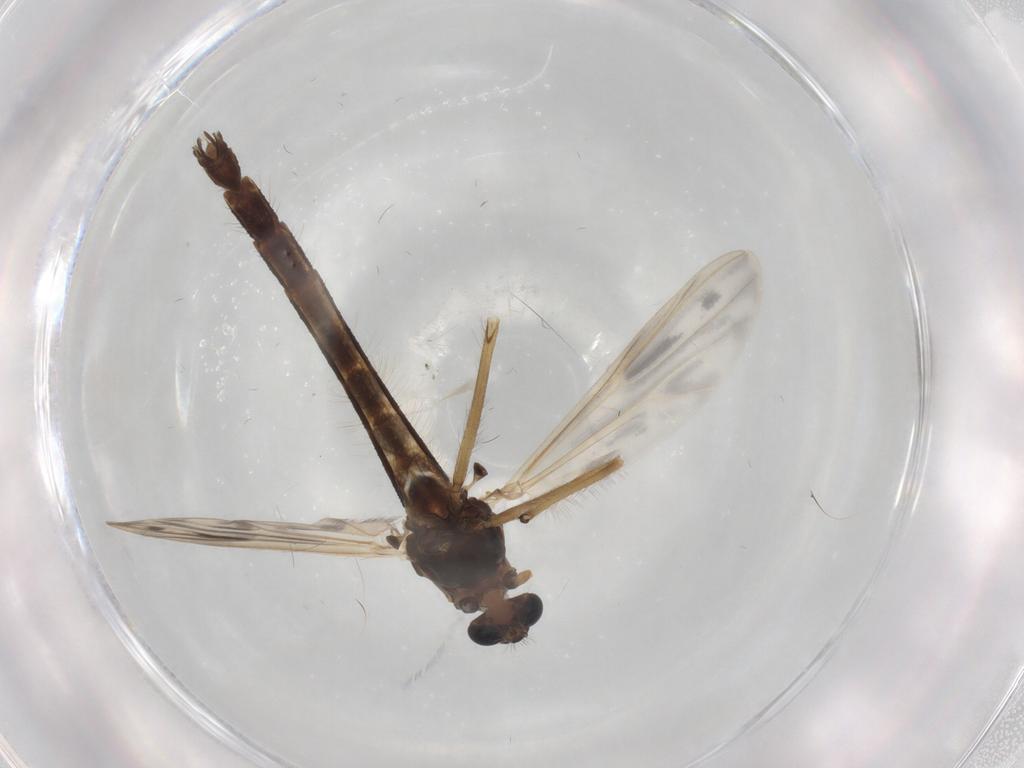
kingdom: Animalia
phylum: Arthropoda
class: Insecta
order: Diptera
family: Chironomidae
